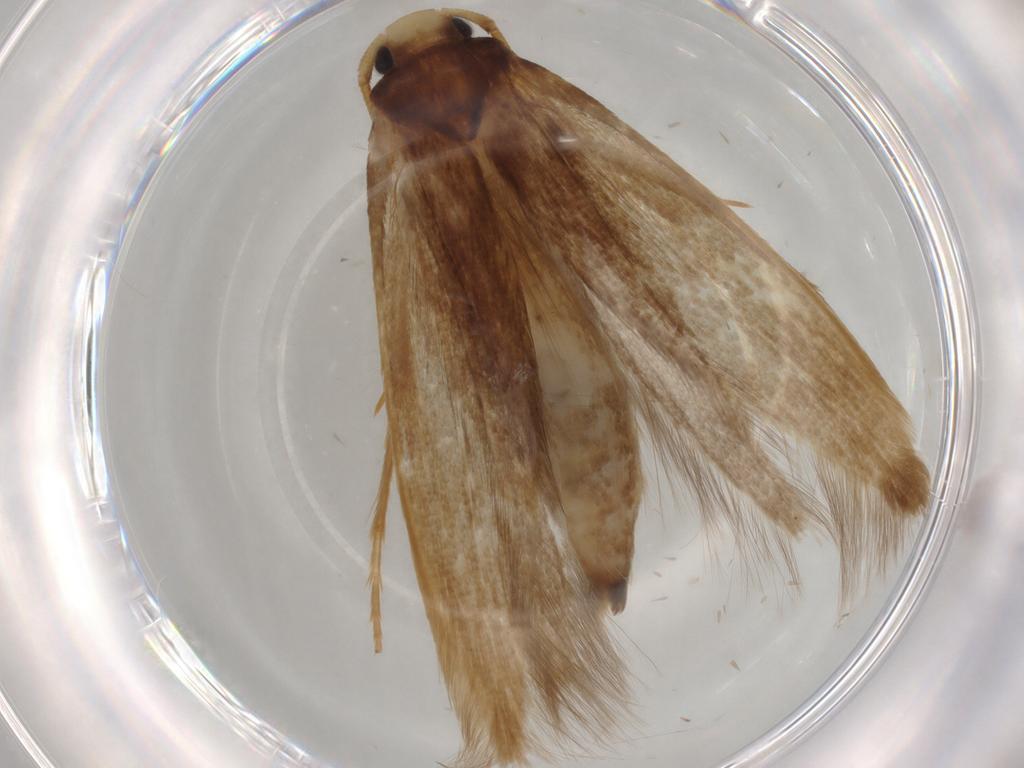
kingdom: Animalia
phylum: Arthropoda
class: Insecta
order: Lepidoptera
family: Tineidae
